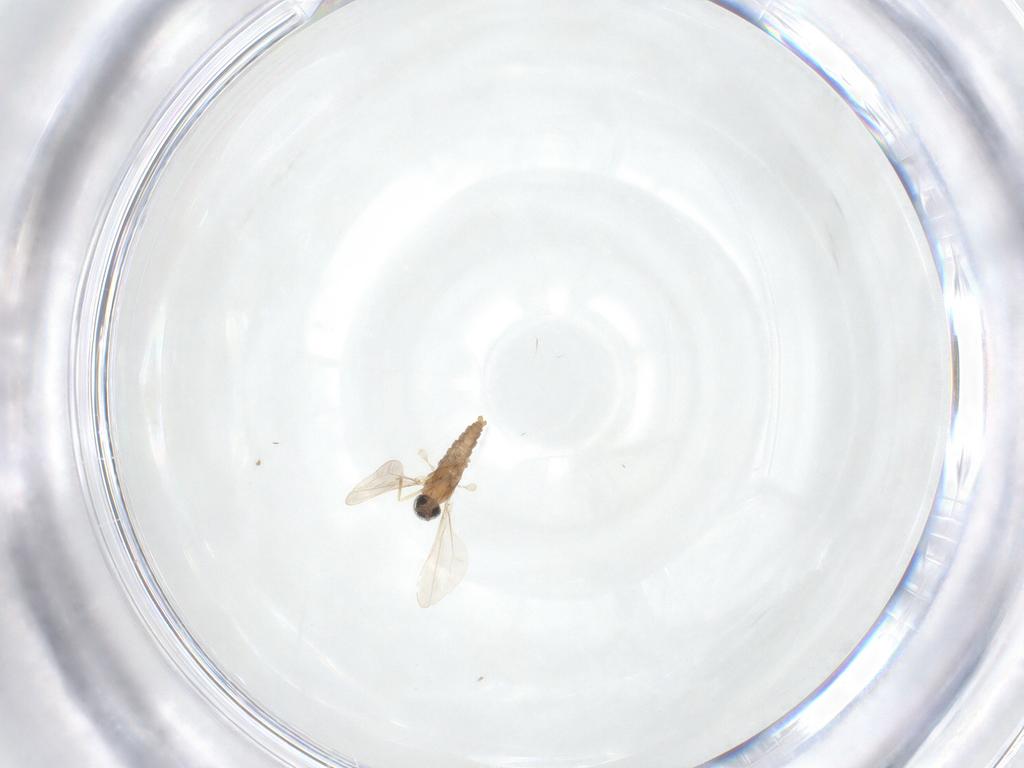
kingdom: Animalia
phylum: Arthropoda
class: Insecta
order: Diptera
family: Cecidomyiidae
